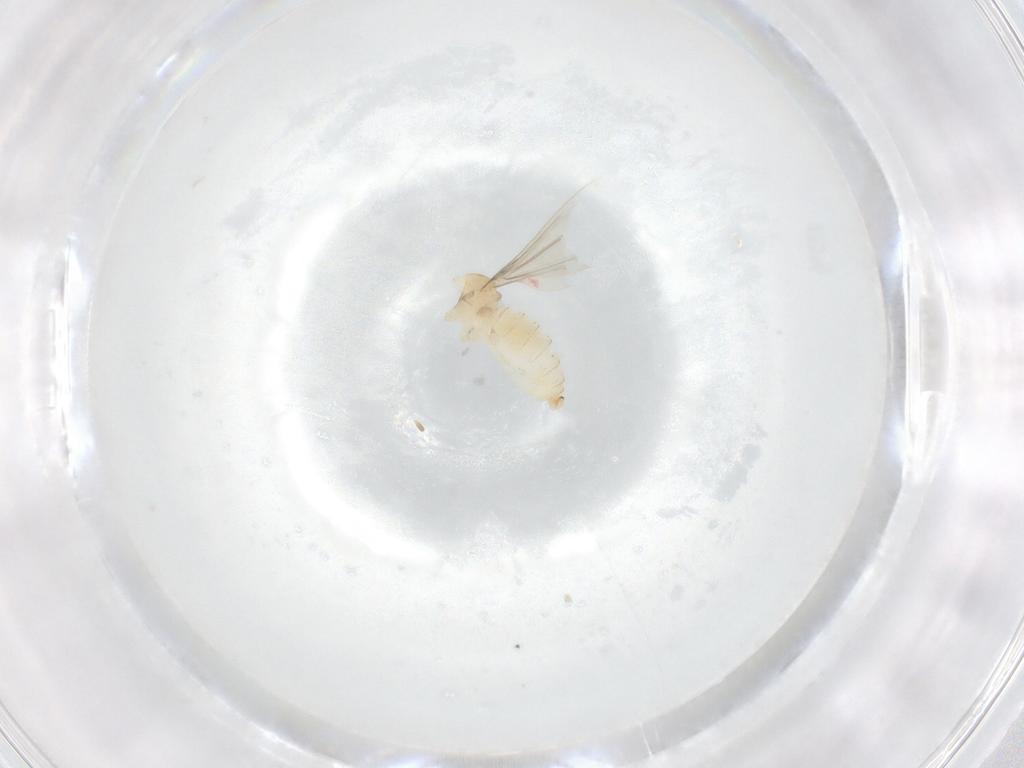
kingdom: Animalia
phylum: Arthropoda
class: Insecta
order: Diptera
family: Cecidomyiidae
